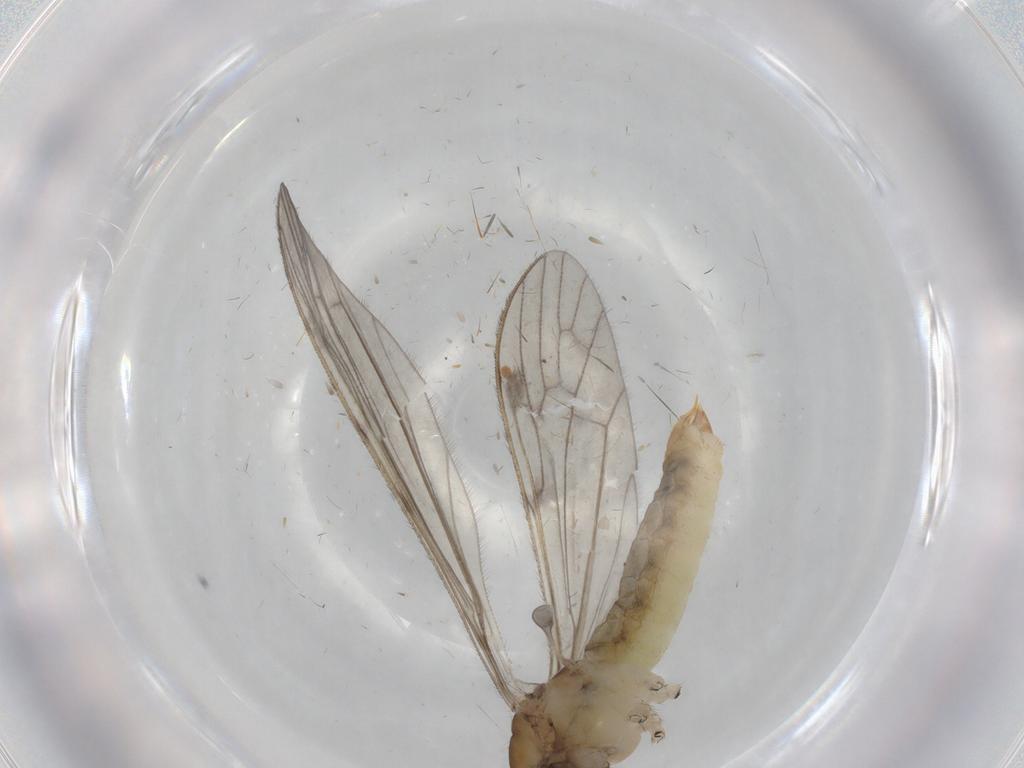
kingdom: Animalia
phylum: Arthropoda
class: Insecta
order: Diptera
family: Limoniidae
